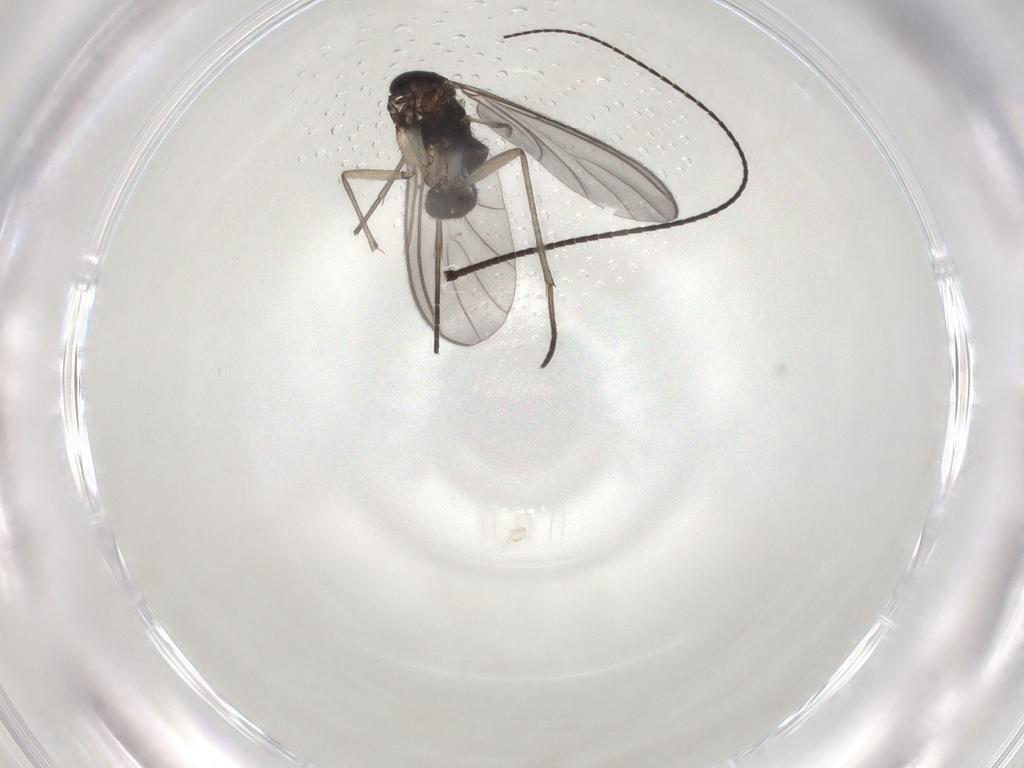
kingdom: Animalia
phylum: Arthropoda
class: Insecta
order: Diptera
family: Sciaridae
